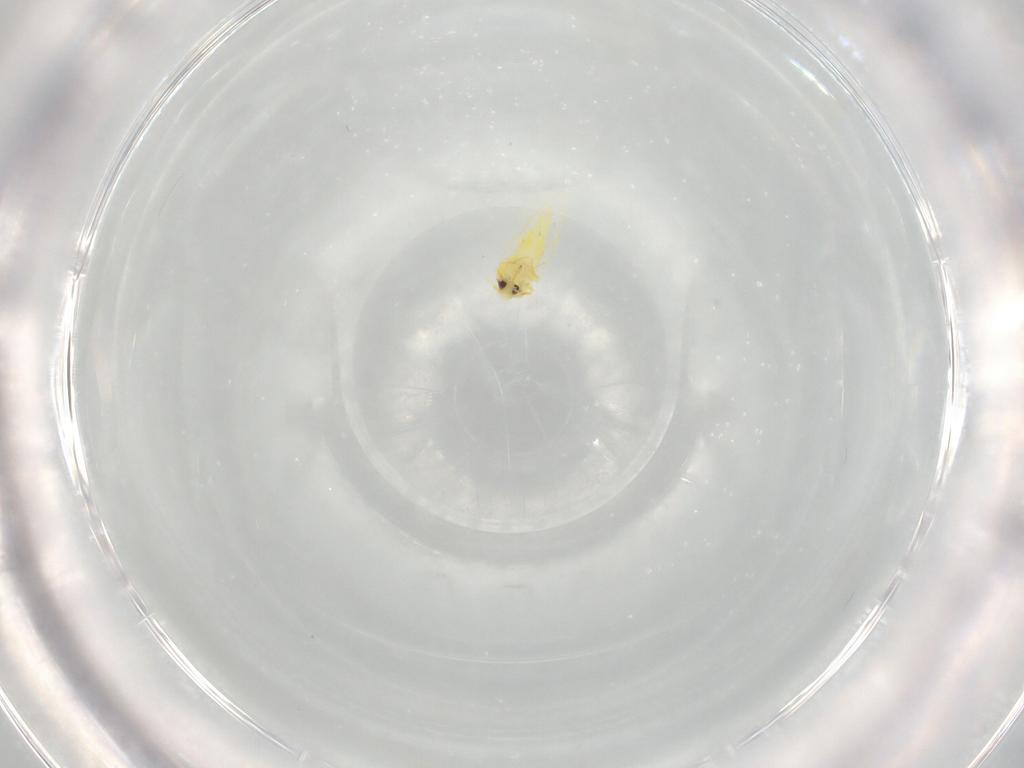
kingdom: Animalia
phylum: Arthropoda
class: Insecta
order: Hemiptera
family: Aleyrodidae
